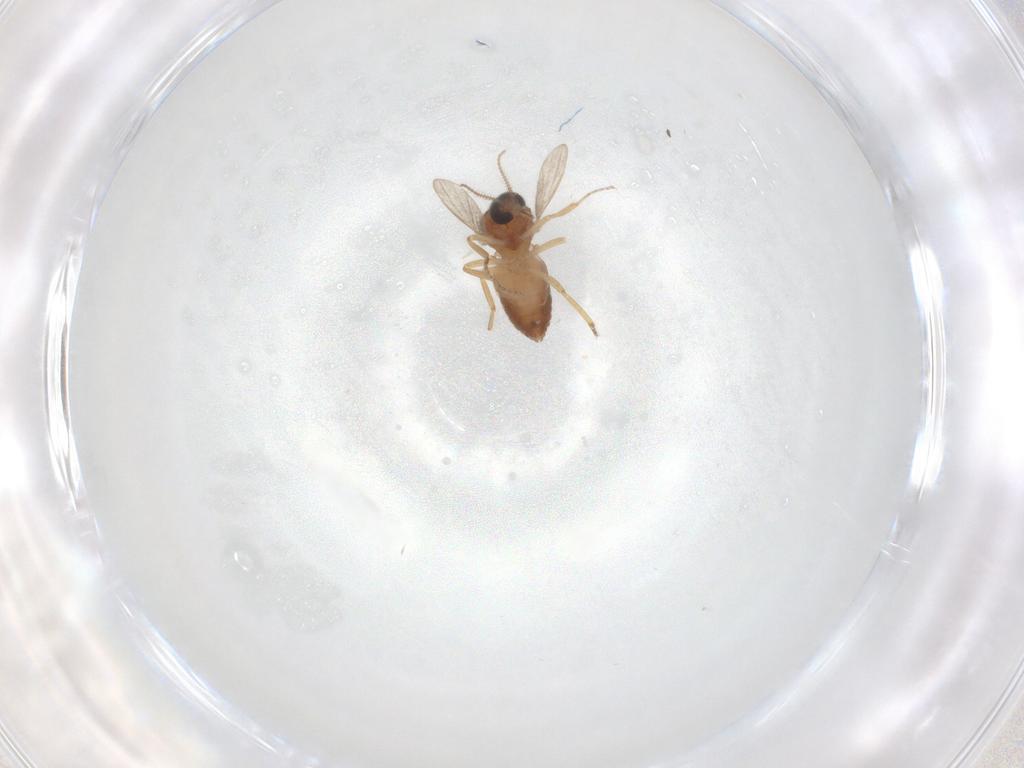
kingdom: Animalia
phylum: Arthropoda
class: Insecta
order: Diptera
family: Ceratopogonidae
